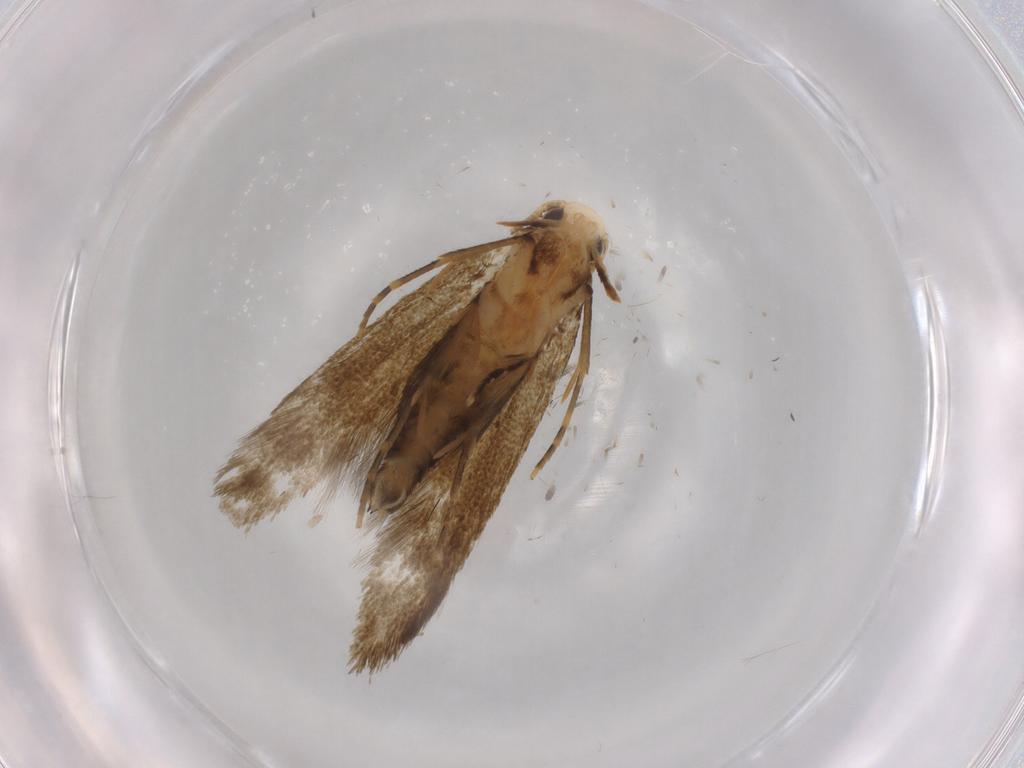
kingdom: Animalia
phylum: Arthropoda
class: Insecta
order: Lepidoptera
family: Tineidae
